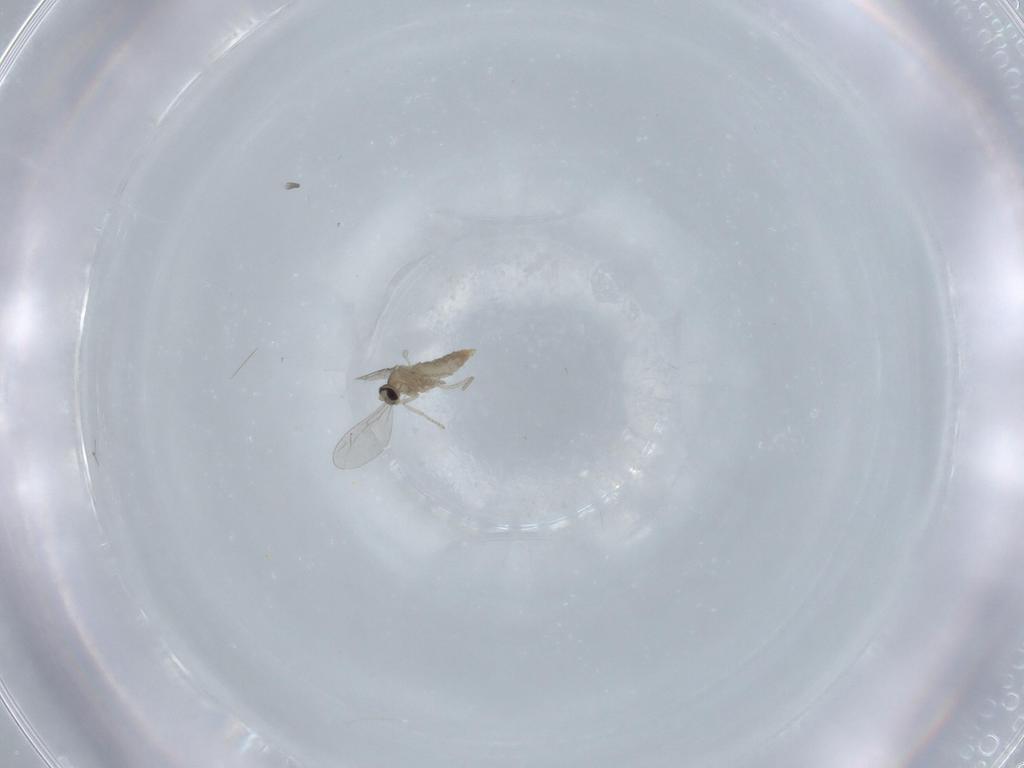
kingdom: Animalia
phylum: Arthropoda
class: Insecta
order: Diptera
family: Cecidomyiidae
